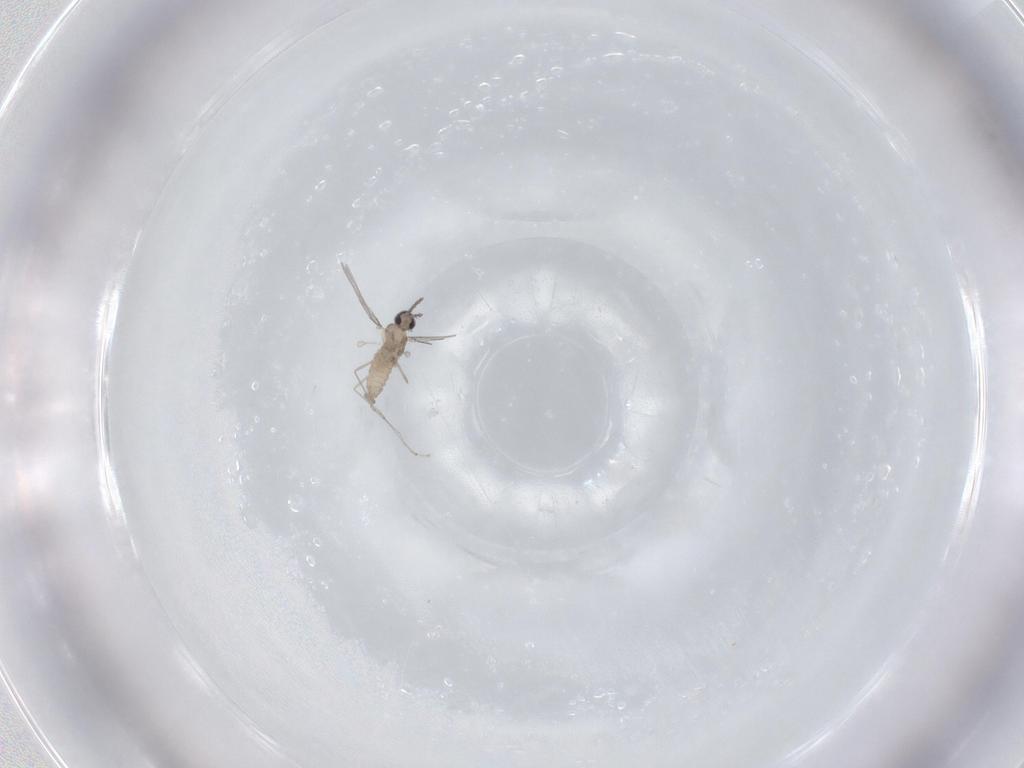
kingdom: Animalia
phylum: Arthropoda
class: Insecta
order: Diptera
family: Cecidomyiidae
